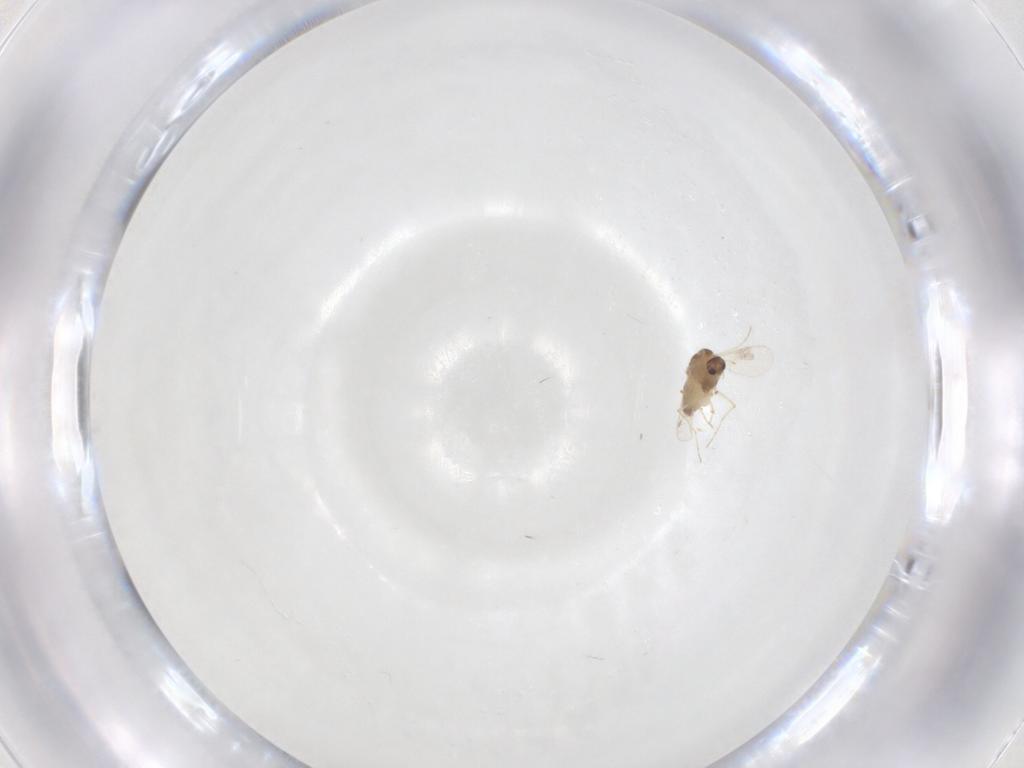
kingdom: Animalia
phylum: Arthropoda
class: Insecta
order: Diptera
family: Chironomidae
